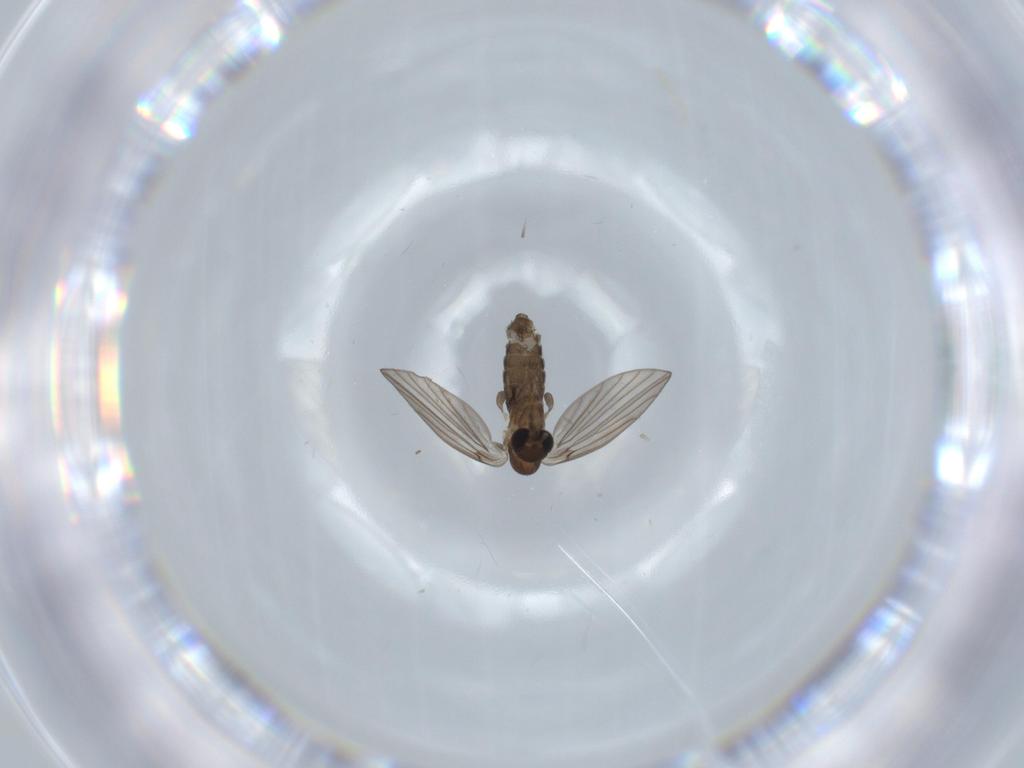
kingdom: Animalia
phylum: Arthropoda
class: Insecta
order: Diptera
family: Psychodidae
